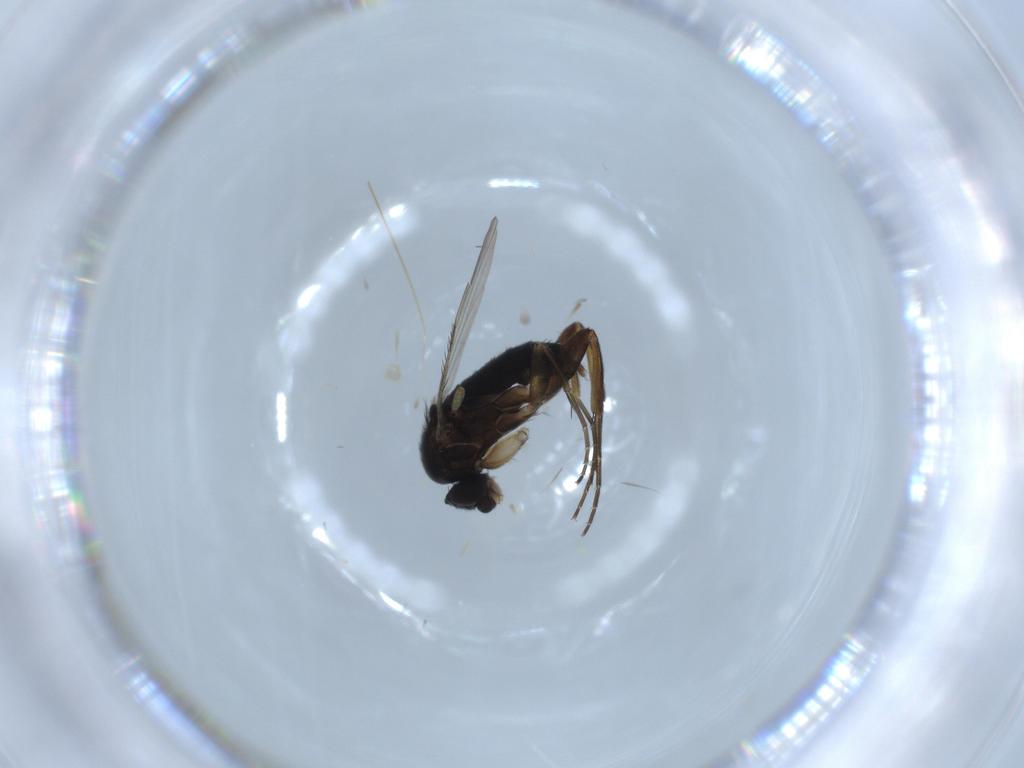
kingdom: Animalia
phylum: Arthropoda
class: Insecta
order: Diptera
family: Phoridae
